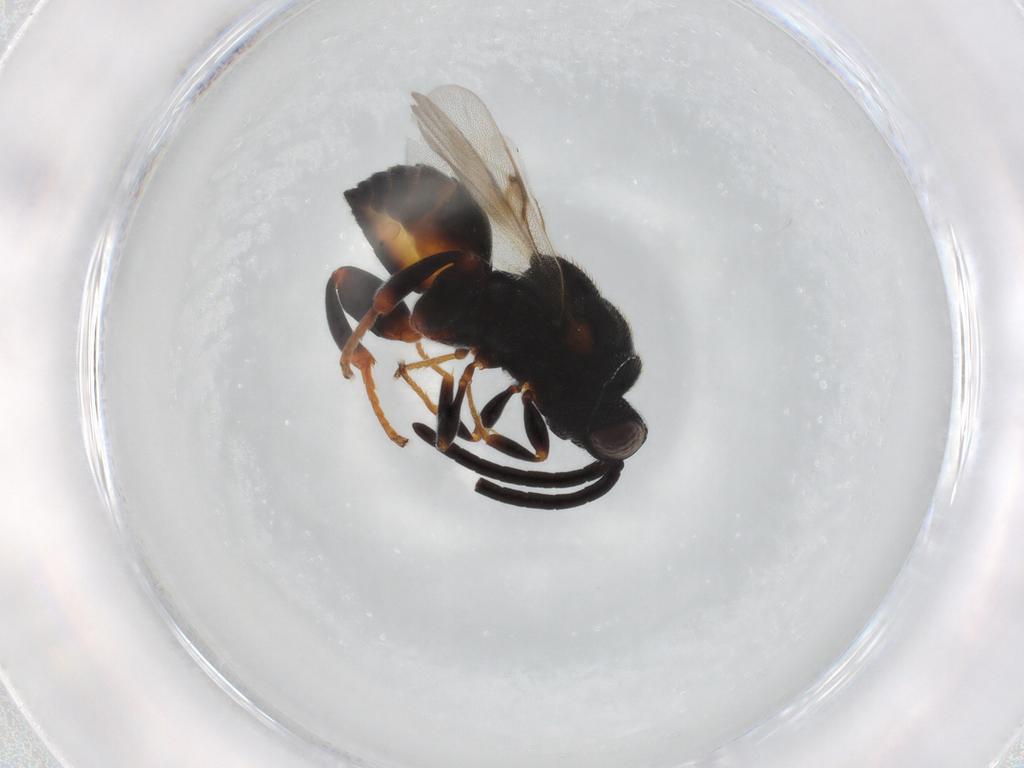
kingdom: Animalia
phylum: Arthropoda
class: Insecta
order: Hymenoptera
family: Chalcididae
